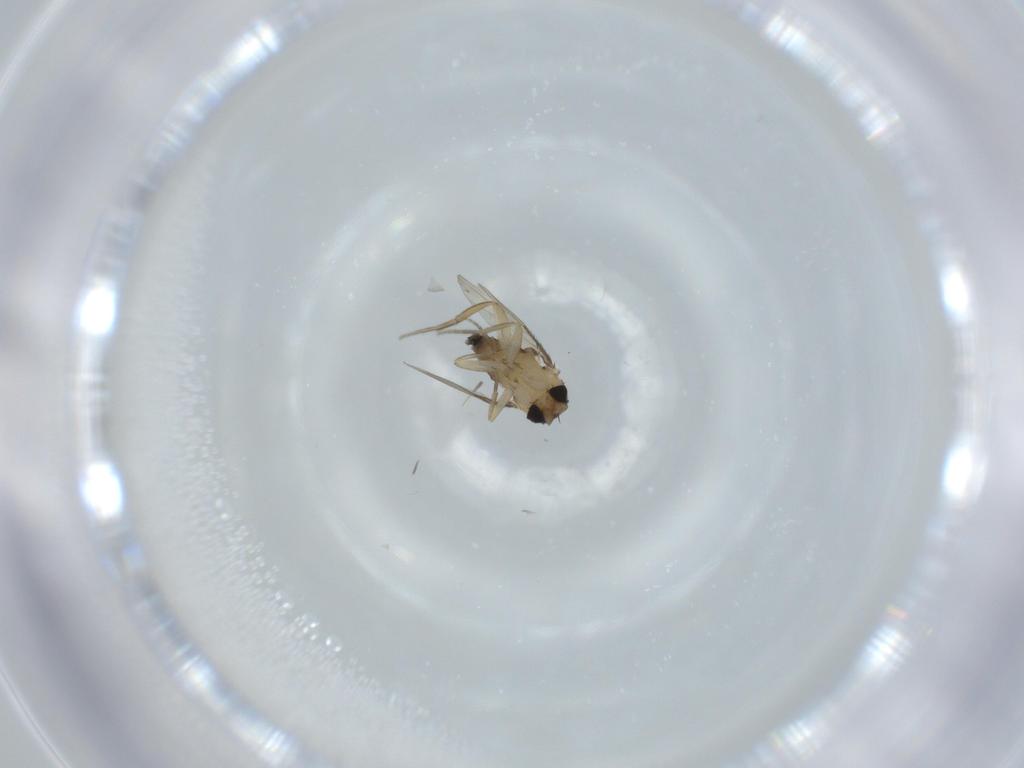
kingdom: Animalia
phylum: Arthropoda
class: Insecta
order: Diptera
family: Phoridae
